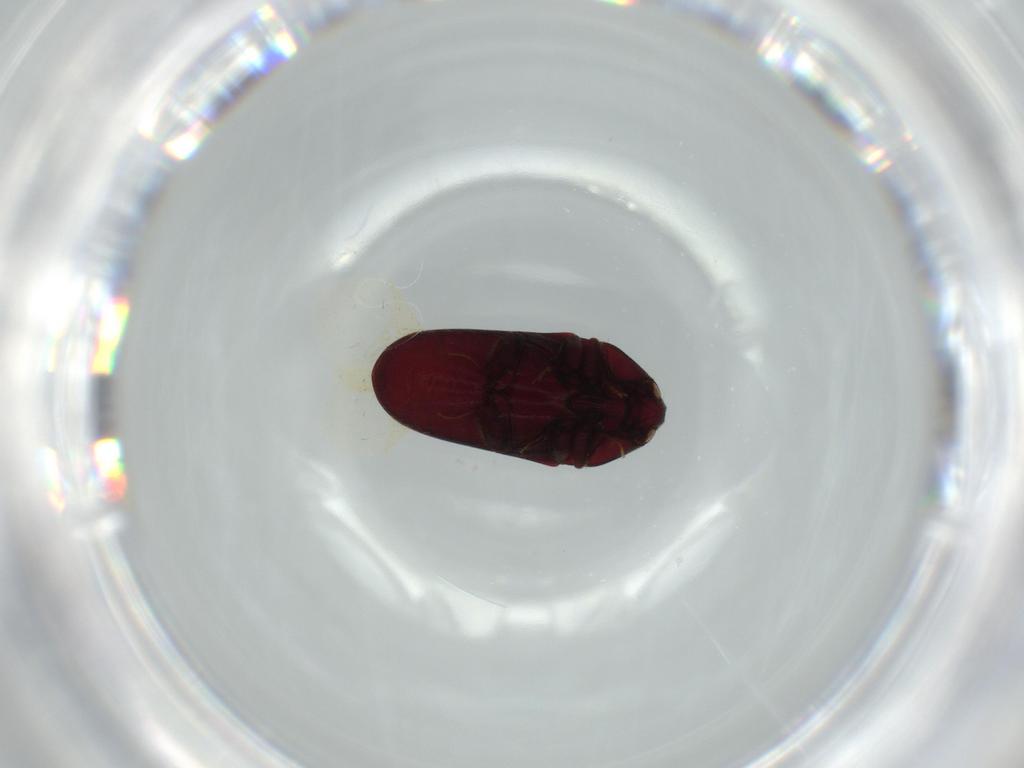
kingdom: Animalia
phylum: Arthropoda
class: Insecta
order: Coleoptera
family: Throscidae
